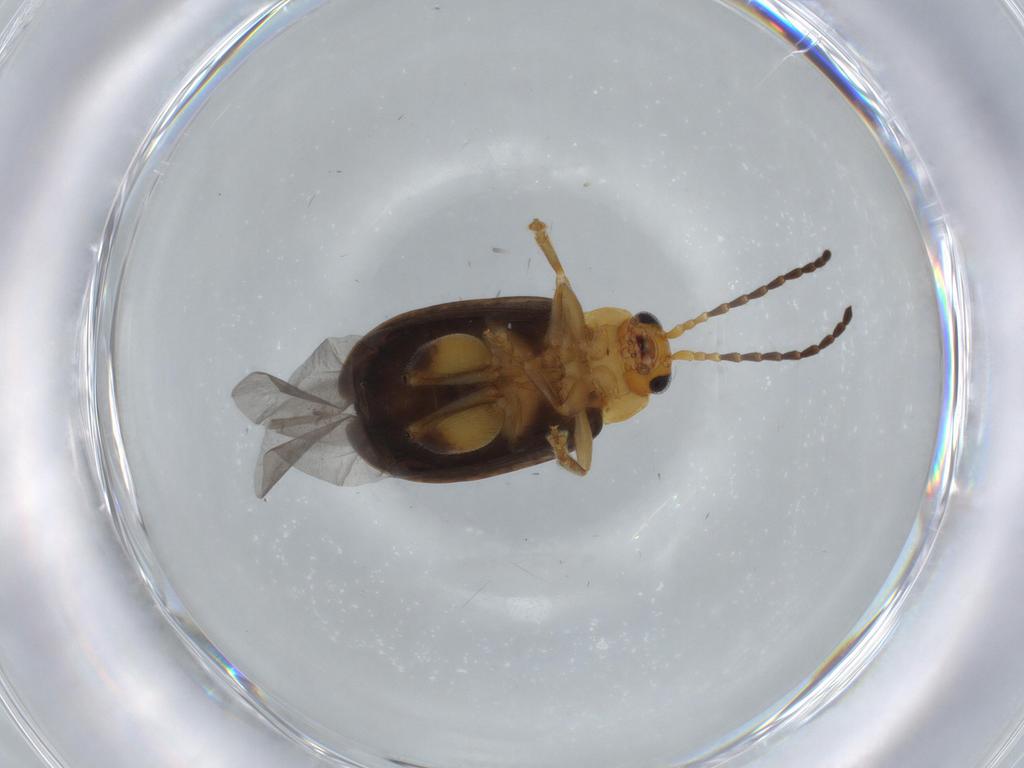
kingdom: Animalia
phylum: Arthropoda
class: Insecta
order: Coleoptera
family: Chrysomelidae
